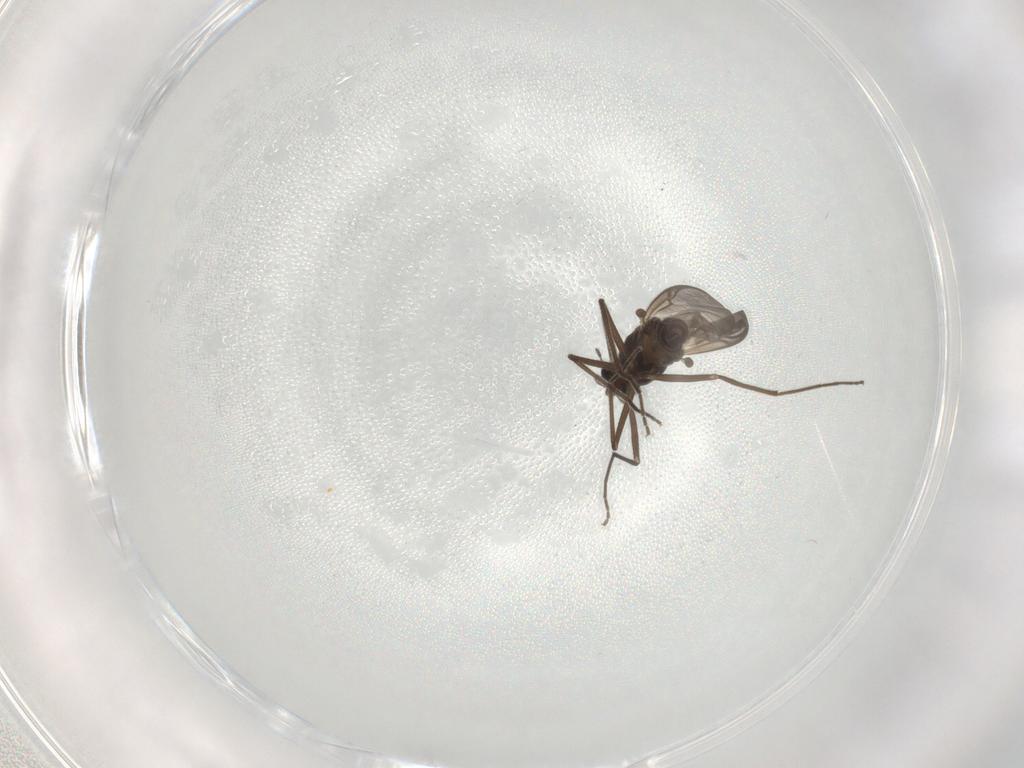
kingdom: Animalia
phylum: Arthropoda
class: Insecta
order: Diptera
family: Chironomidae
